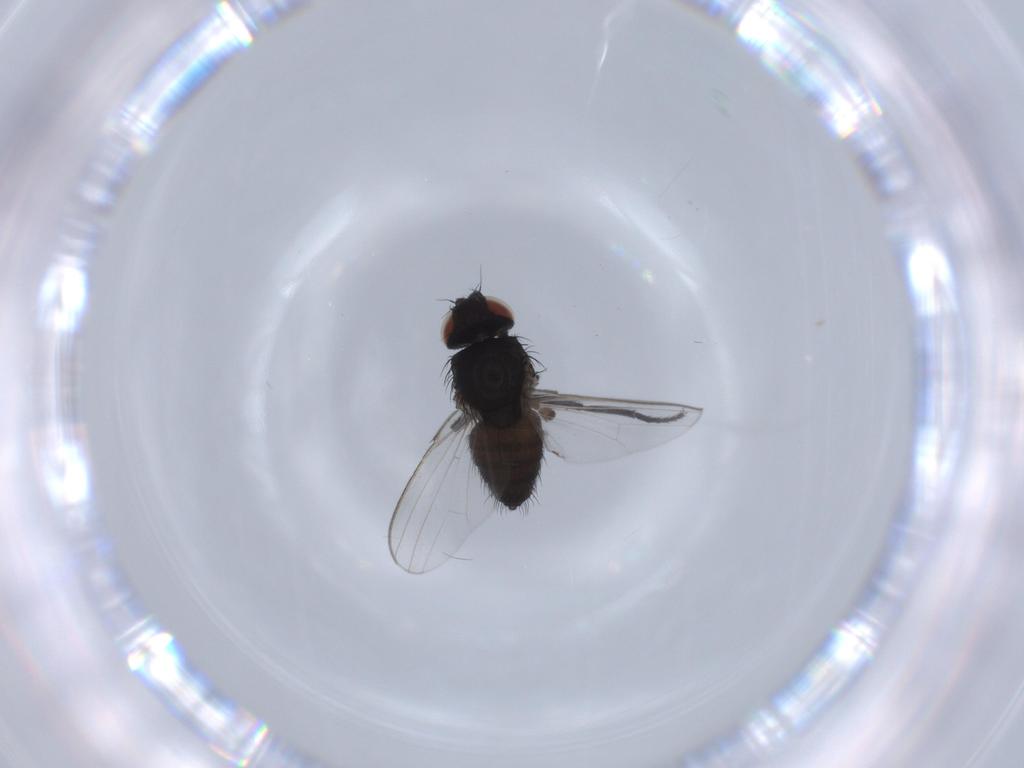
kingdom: Animalia
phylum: Arthropoda
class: Insecta
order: Diptera
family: Milichiidae
